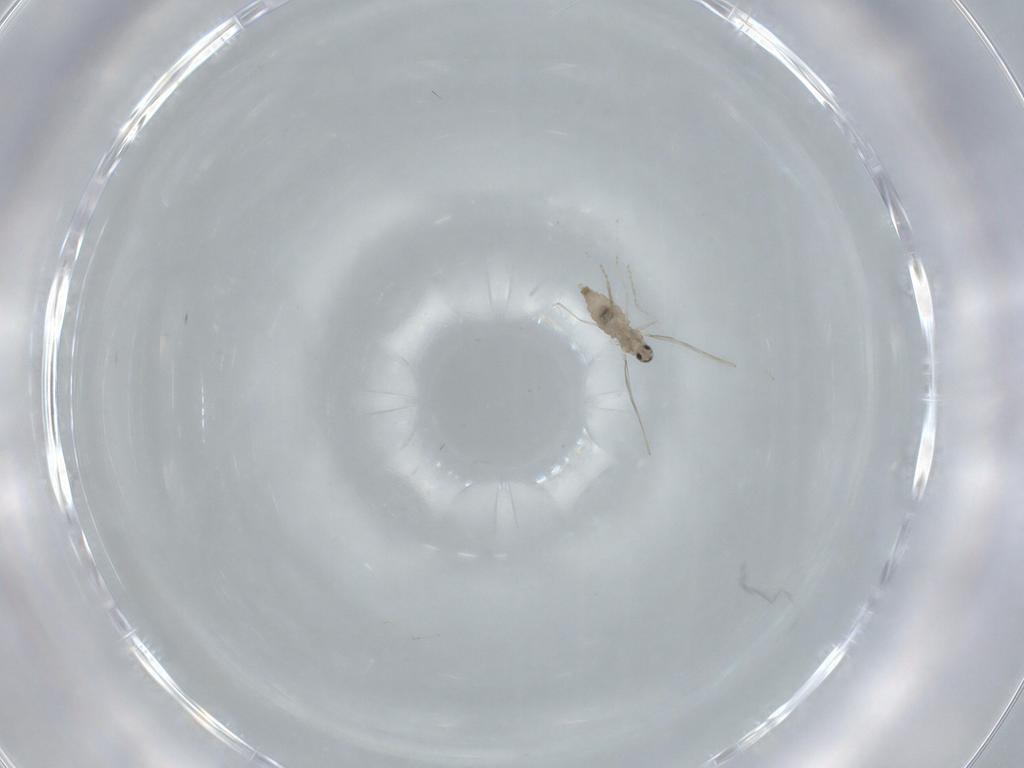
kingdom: Animalia
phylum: Arthropoda
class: Insecta
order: Diptera
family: Cecidomyiidae
